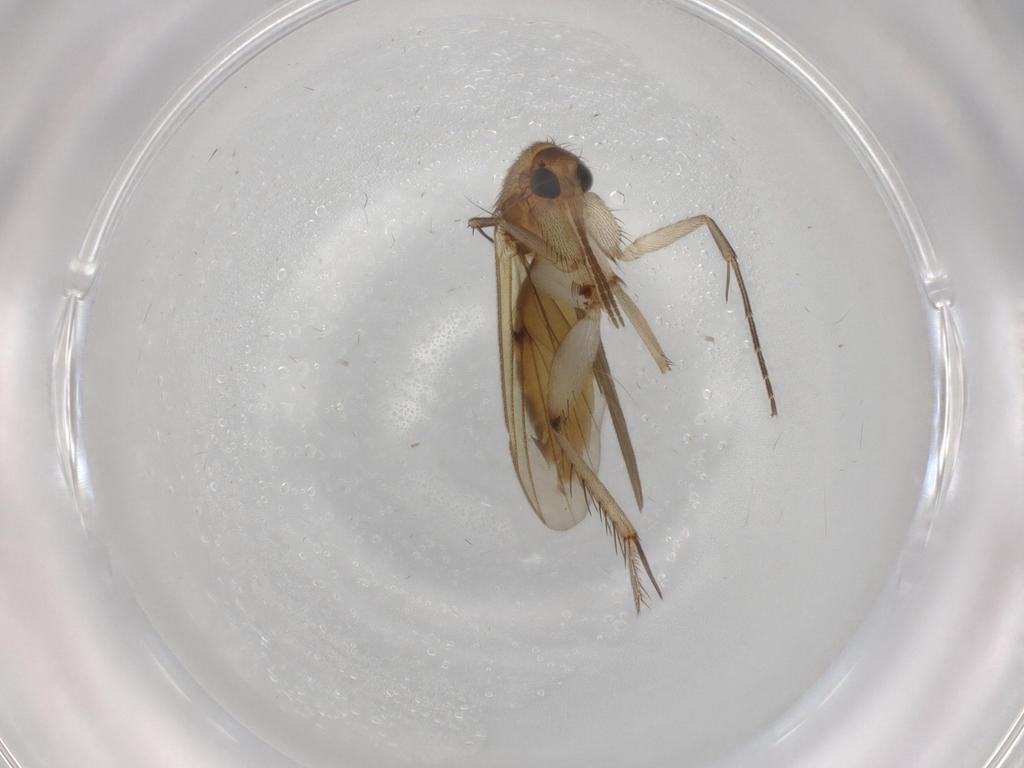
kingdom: Animalia
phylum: Arthropoda
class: Insecta
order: Diptera
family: Mycetophilidae
